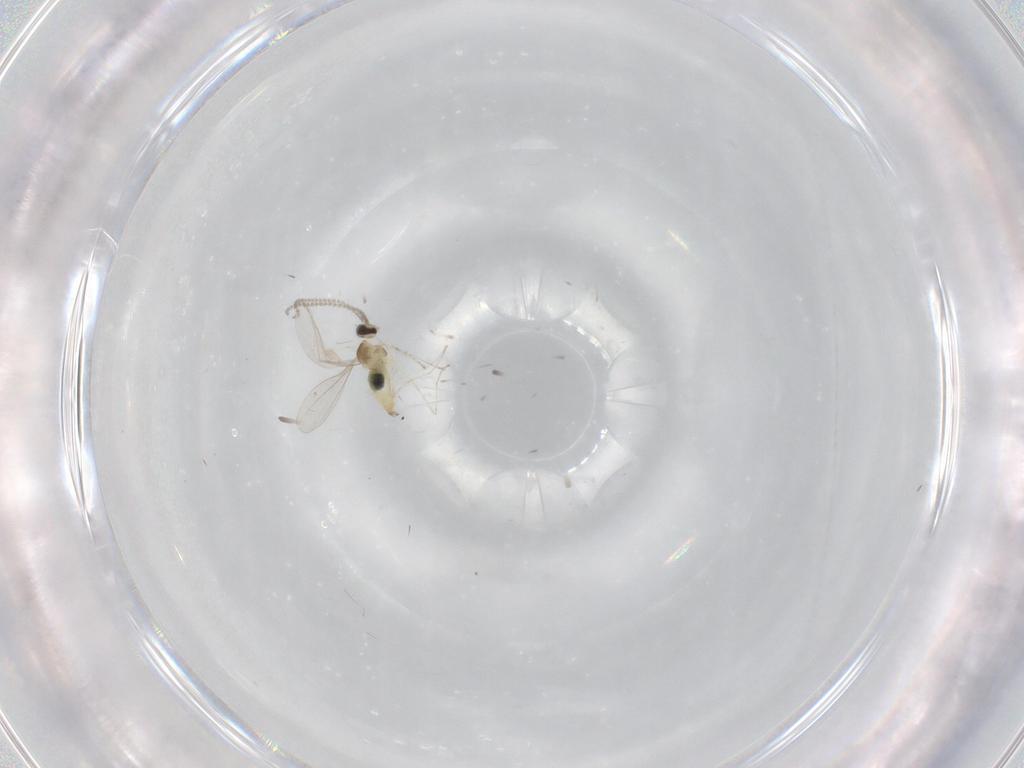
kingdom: Animalia
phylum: Arthropoda
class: Insecta
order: Diptera
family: Cecidomyiidae
